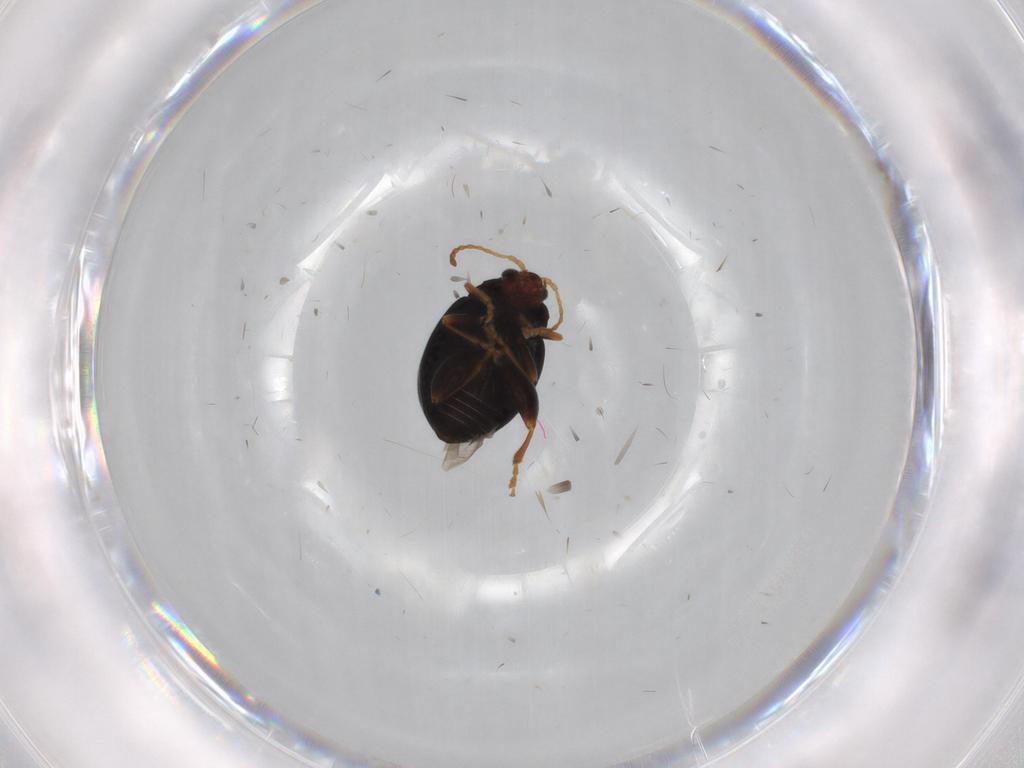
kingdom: Animalia
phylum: Arthropoda
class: Insecta
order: Coleoptera
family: Chrysomelidae
